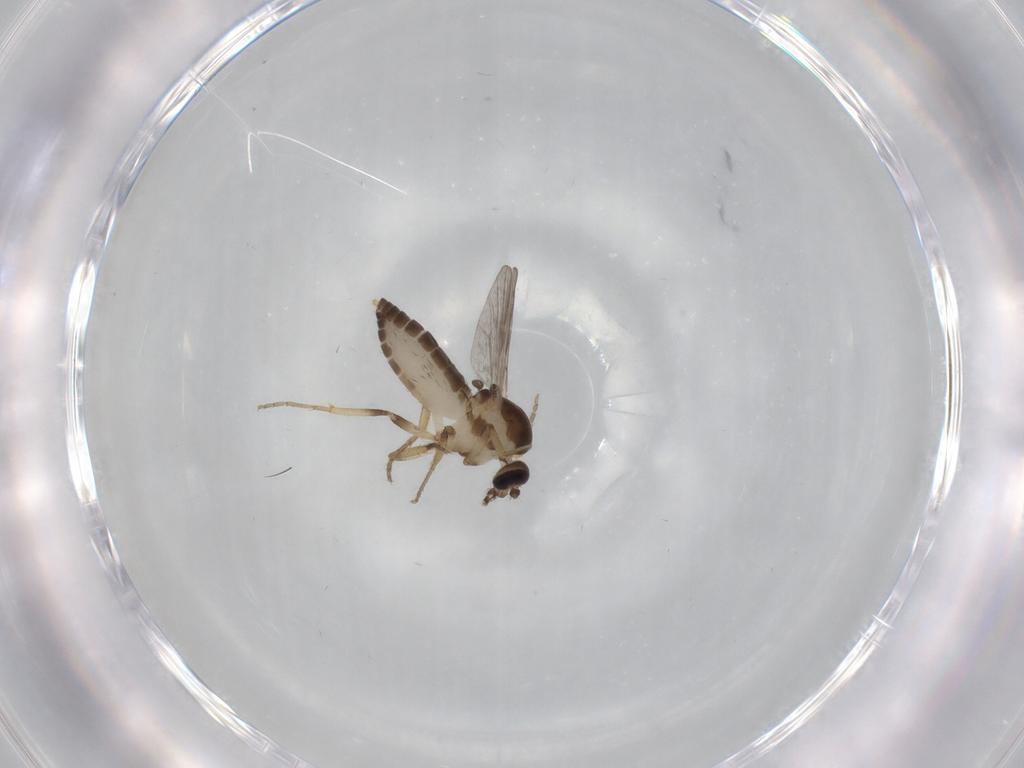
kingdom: Animalia
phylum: Arthropoda
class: Insecta
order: Diptera
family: Ceratopogonidae
